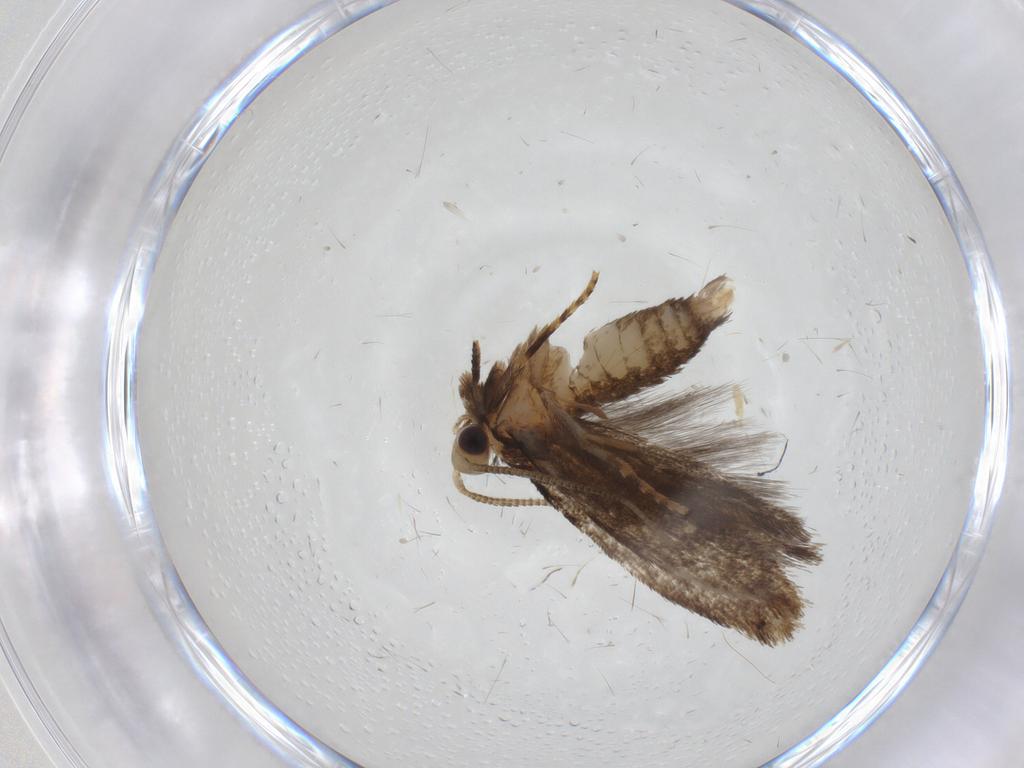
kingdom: Animalia
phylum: Arthropoda
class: Insecta
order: Lepidoptera
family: Tineidae
